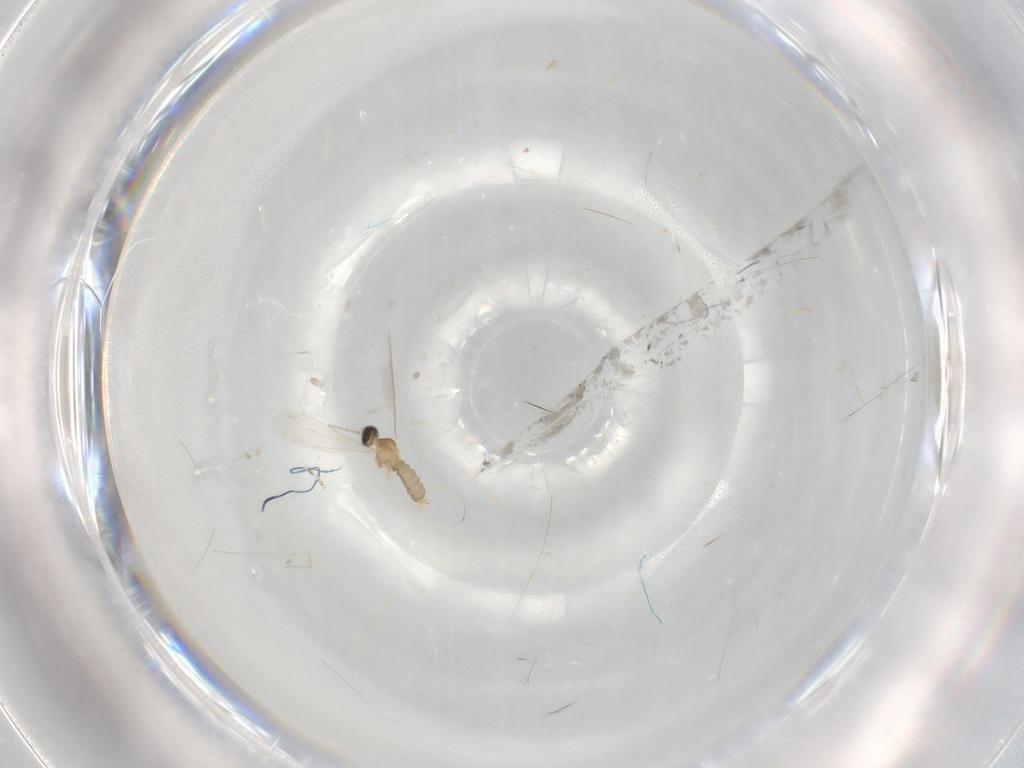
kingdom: Animalia
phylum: Arthropoda
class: Insecta
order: Diptera
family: Cecidomyiidae
